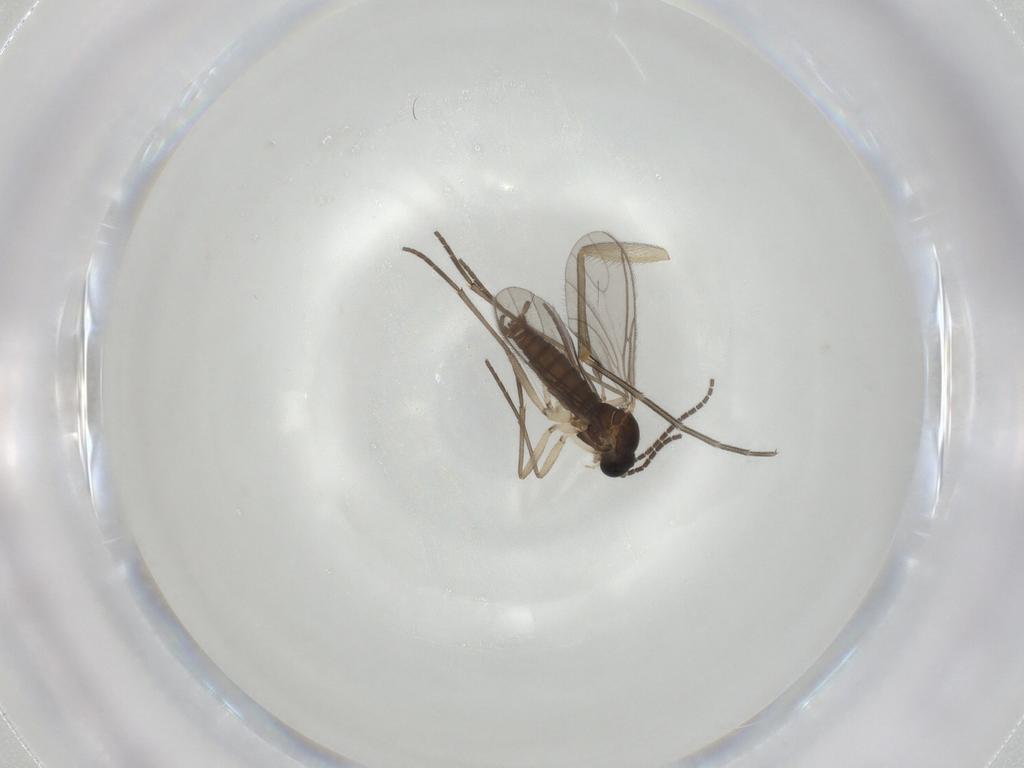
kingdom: Animalia
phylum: Arthropoda
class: Insecta
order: Diptera
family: Sciaridae
